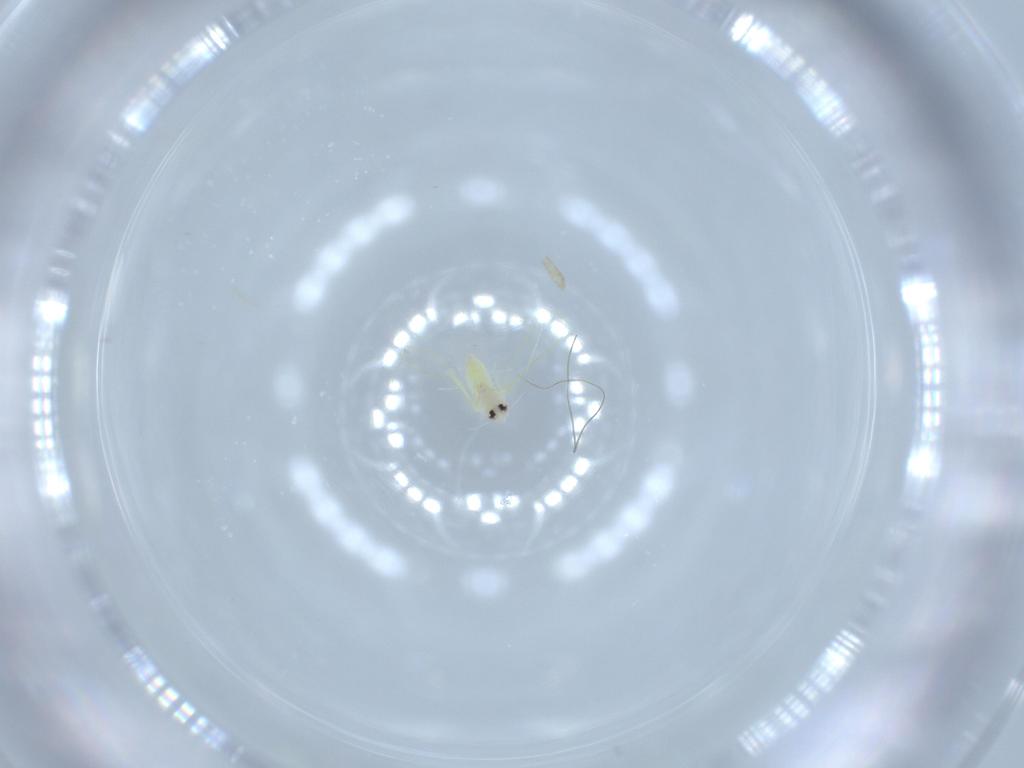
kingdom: Animalia
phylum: Arthropoda
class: Insecta
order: Hemiptera
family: Aleyrodidae
